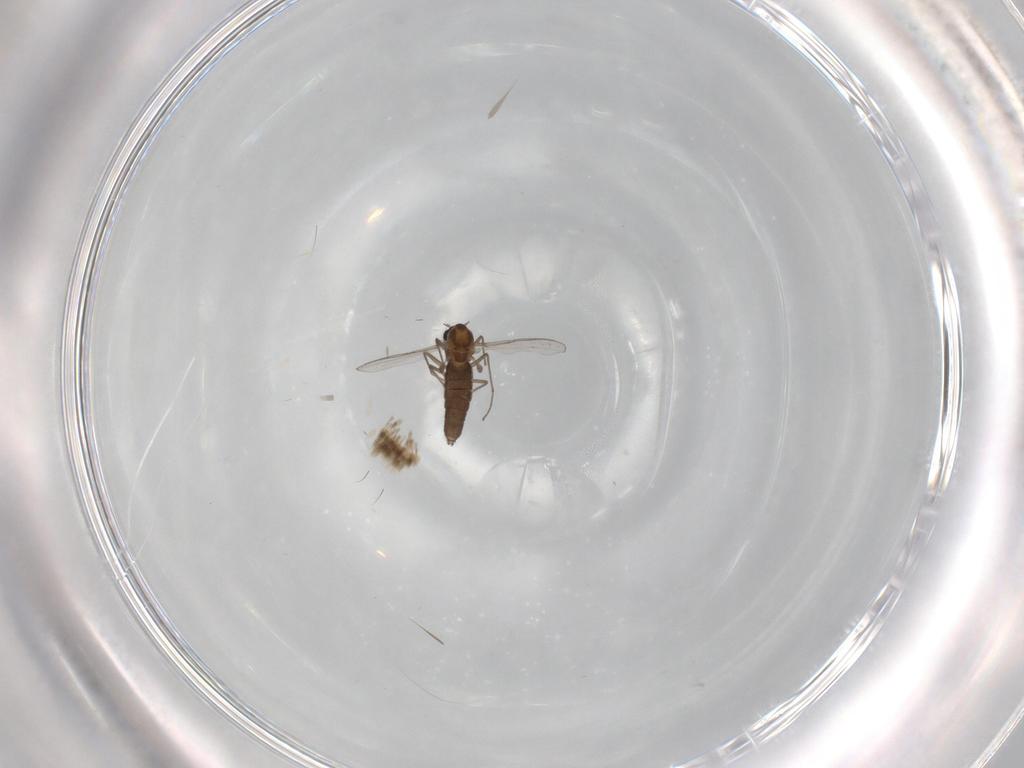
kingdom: Animalia
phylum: Arthropoda
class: Insecta
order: Diptera
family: Chironomidae
